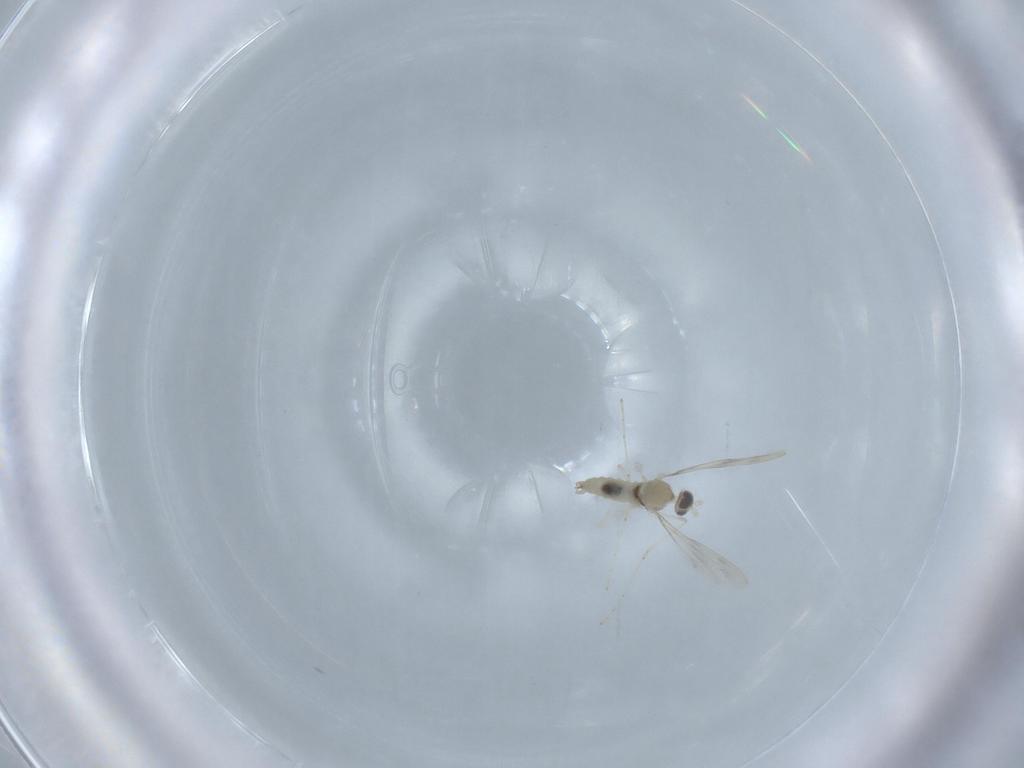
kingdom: Animalia
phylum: Arthropoda
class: Insecta
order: Diptera
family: Cecidomyiidae
